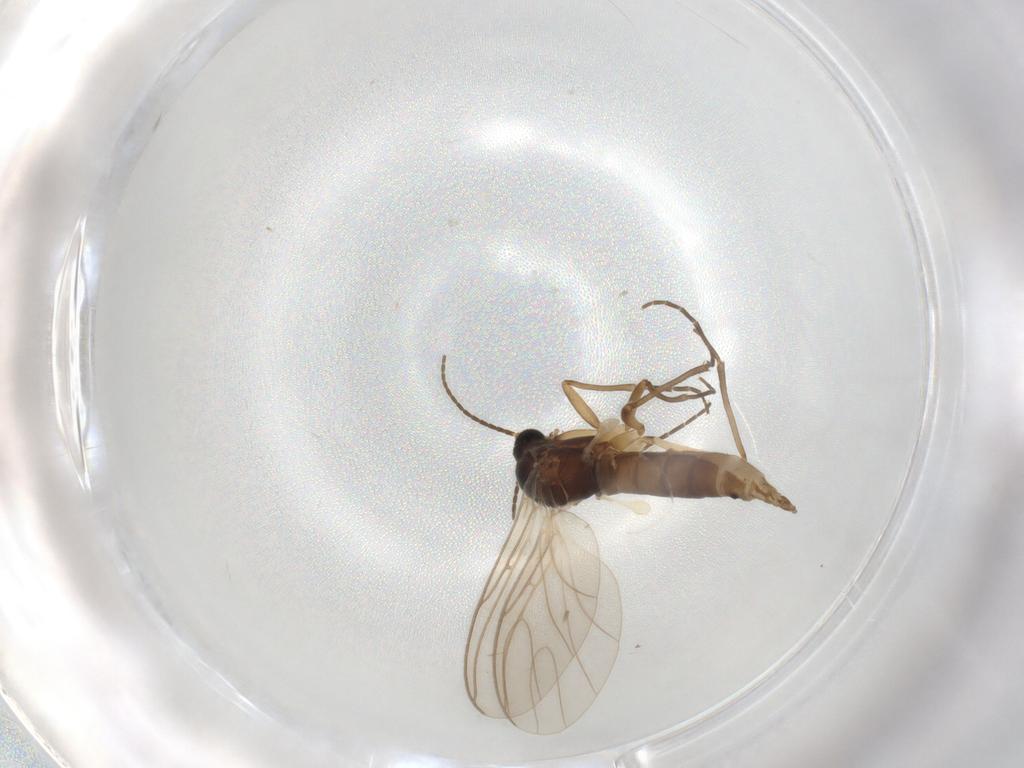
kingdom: Animalia
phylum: Arthropoda
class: Insecta
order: Diptera
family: Sciaridae
